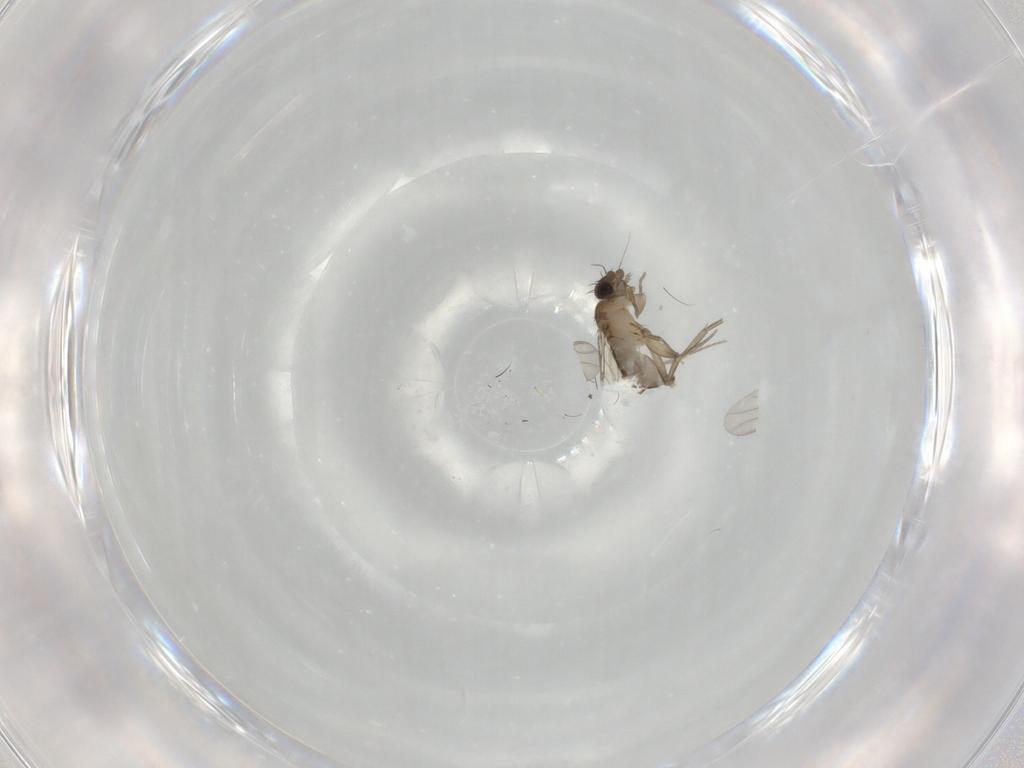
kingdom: Animalia
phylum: Arthropoda
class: Insecta
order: Diptera
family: Phoridae
